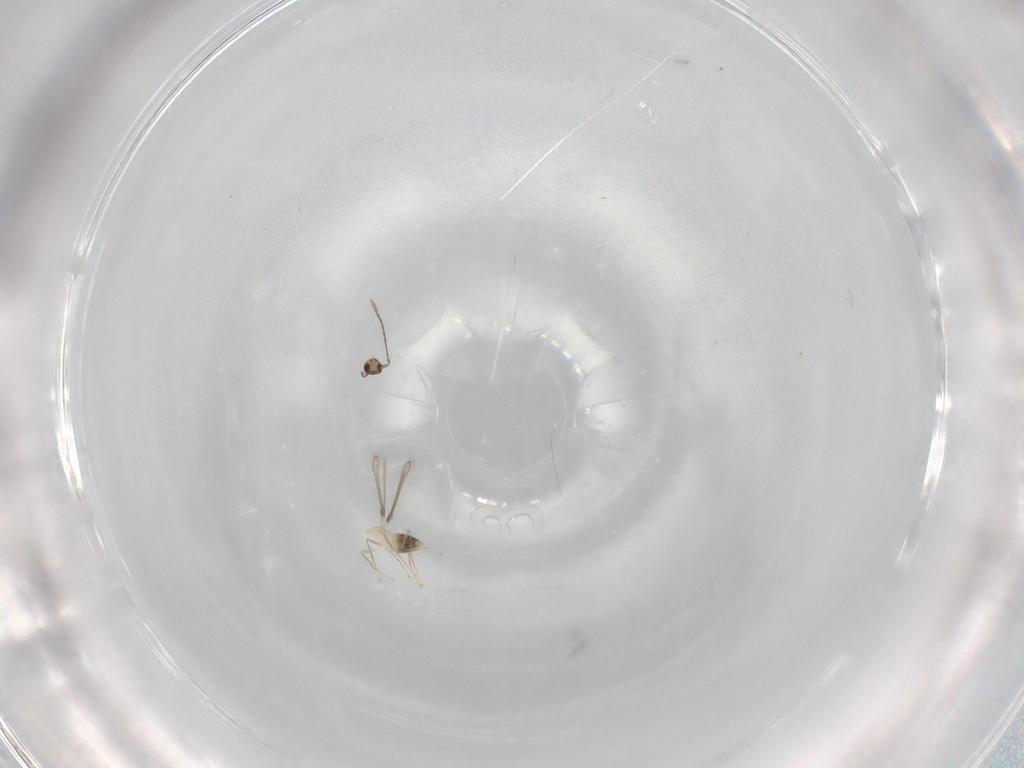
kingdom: Animalia
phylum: Arthropoda
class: Insecta
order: Hymenoptera
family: Mymaridae
